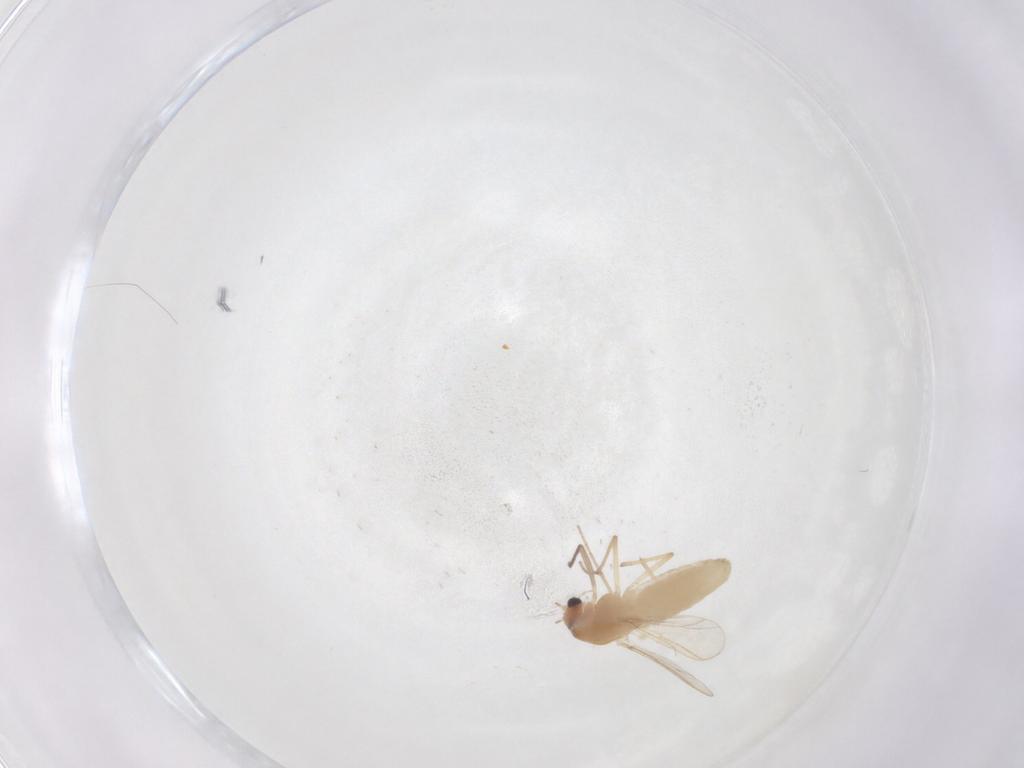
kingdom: Animalia
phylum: Arthropoda
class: Insecta
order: Diptera
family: Chironomidae
